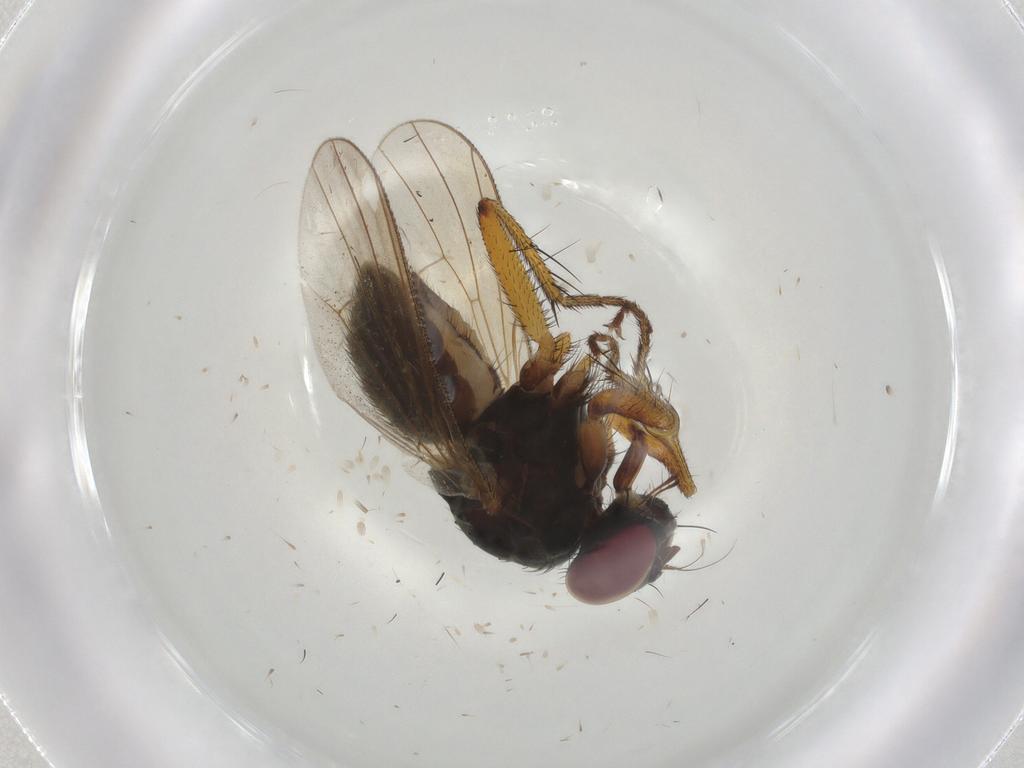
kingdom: Animalia
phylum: Arthropoda
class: Insecta
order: Diptera
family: Muscidae
